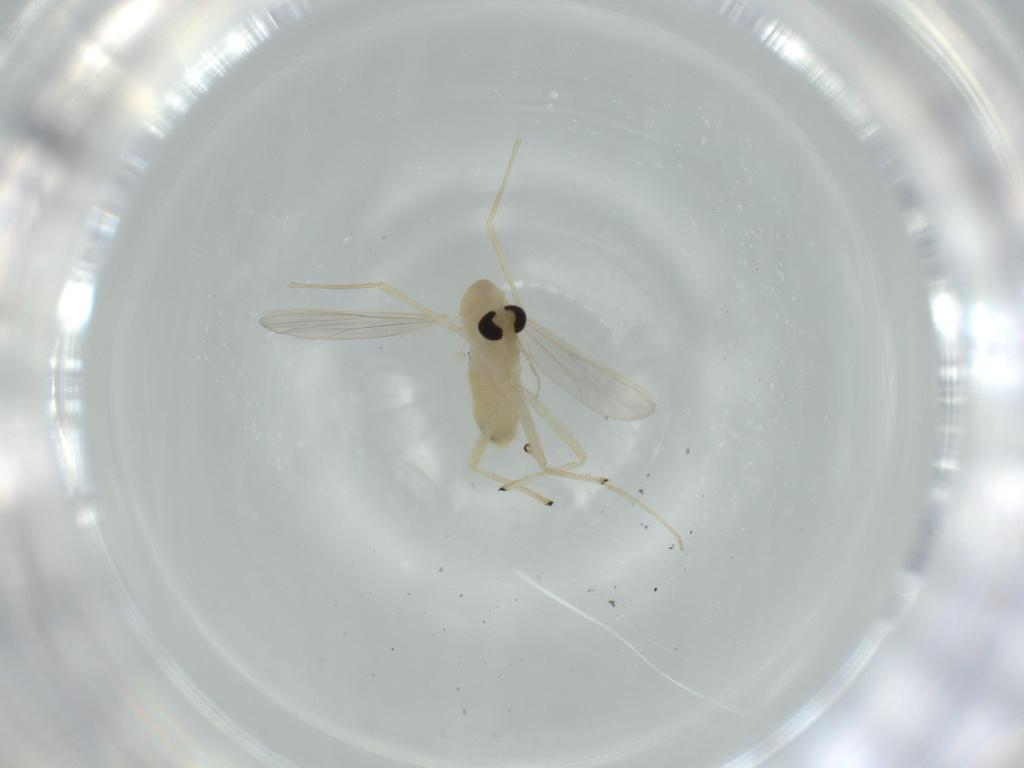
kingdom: Animalia
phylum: Arthropoda
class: Insecta
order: Diptera
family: Chironomidae
